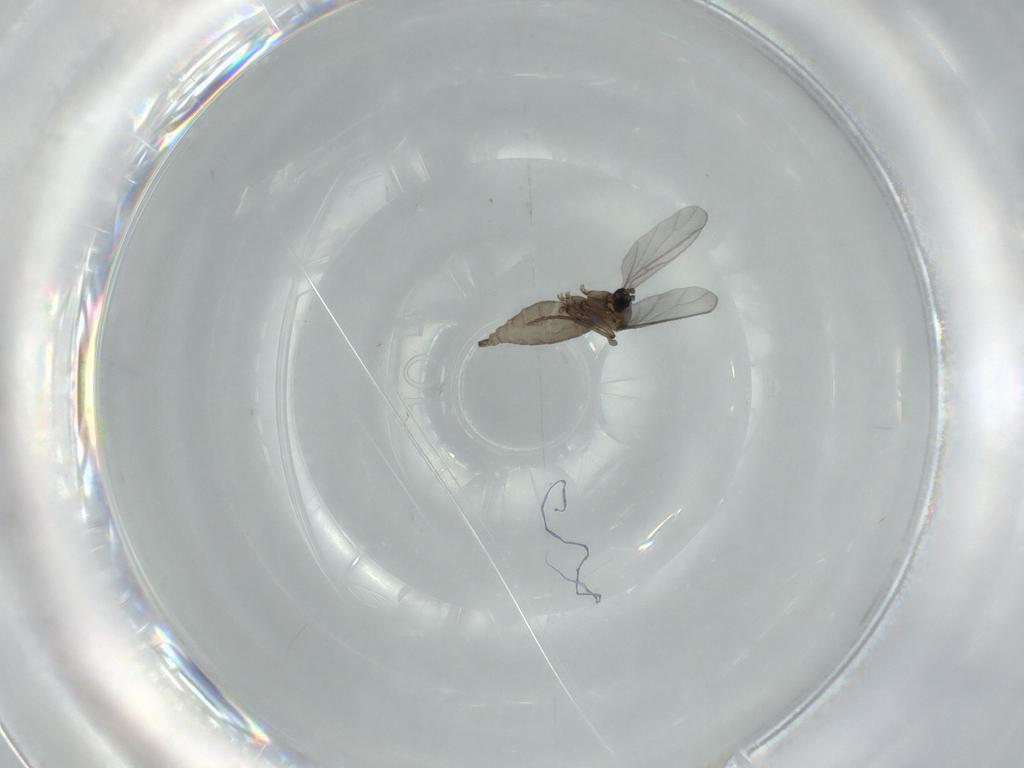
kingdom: Animalia
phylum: Arthropoda
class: Insecta
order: Diptera
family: Sciaridae
